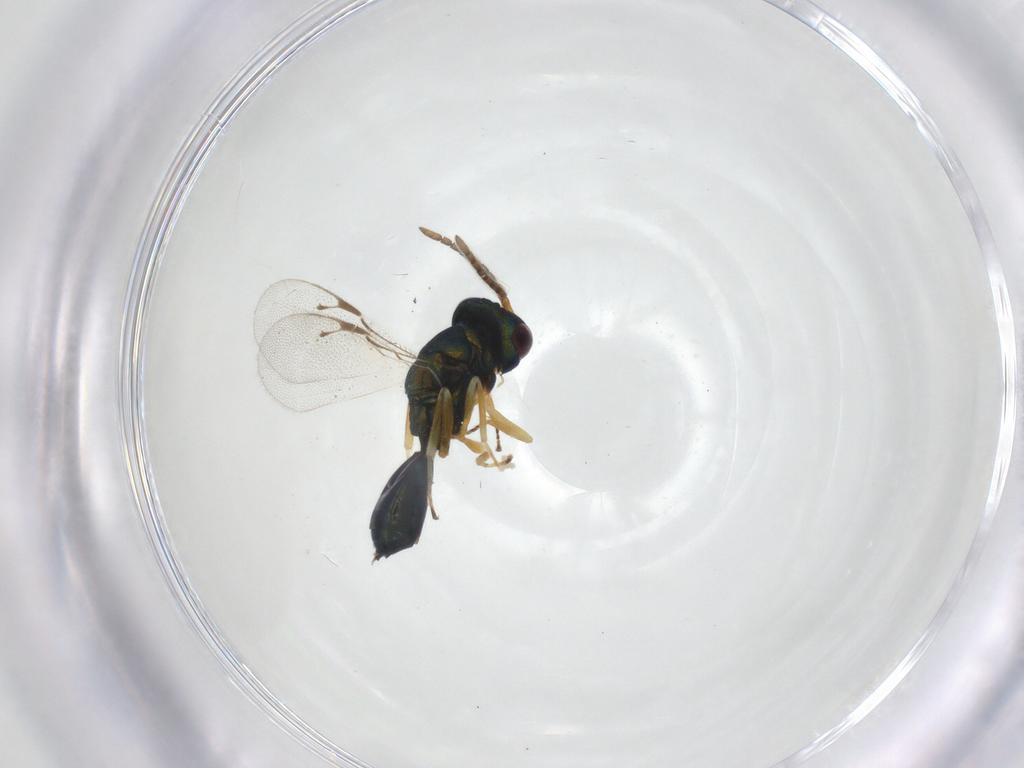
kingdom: Animalia
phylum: Arthropoda
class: Insecta
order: Hymenoptera
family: Pteromalidae
